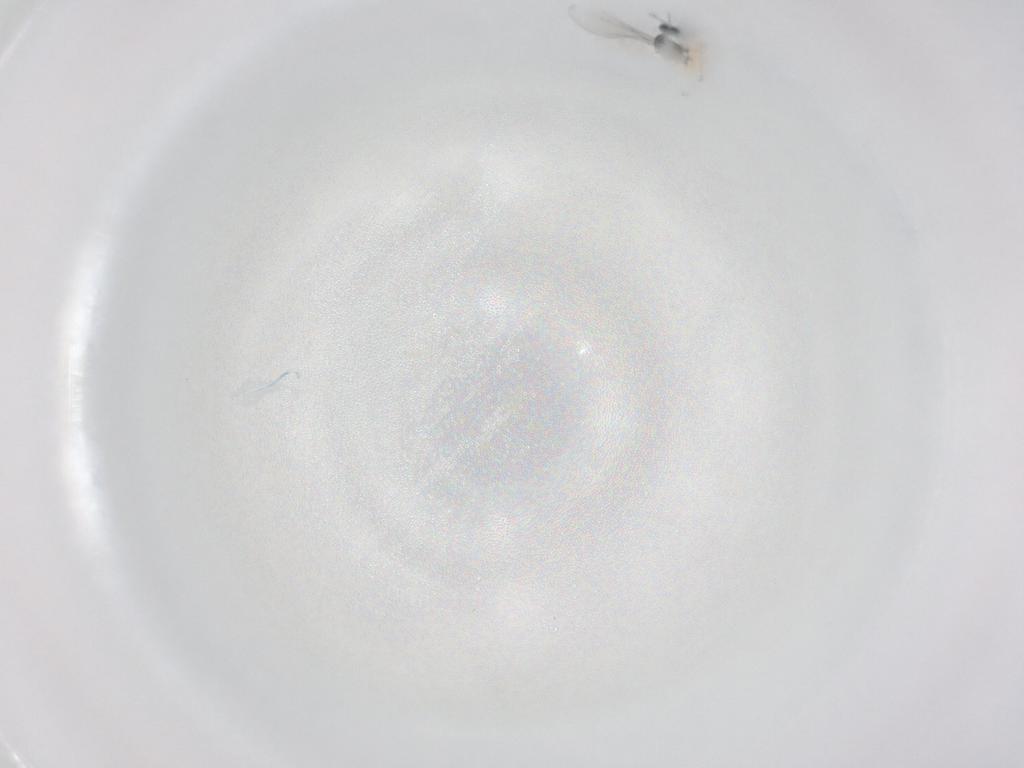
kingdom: Animalia
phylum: Arthropoda
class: Insecta
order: Diptera
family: Cecidomyiidae
